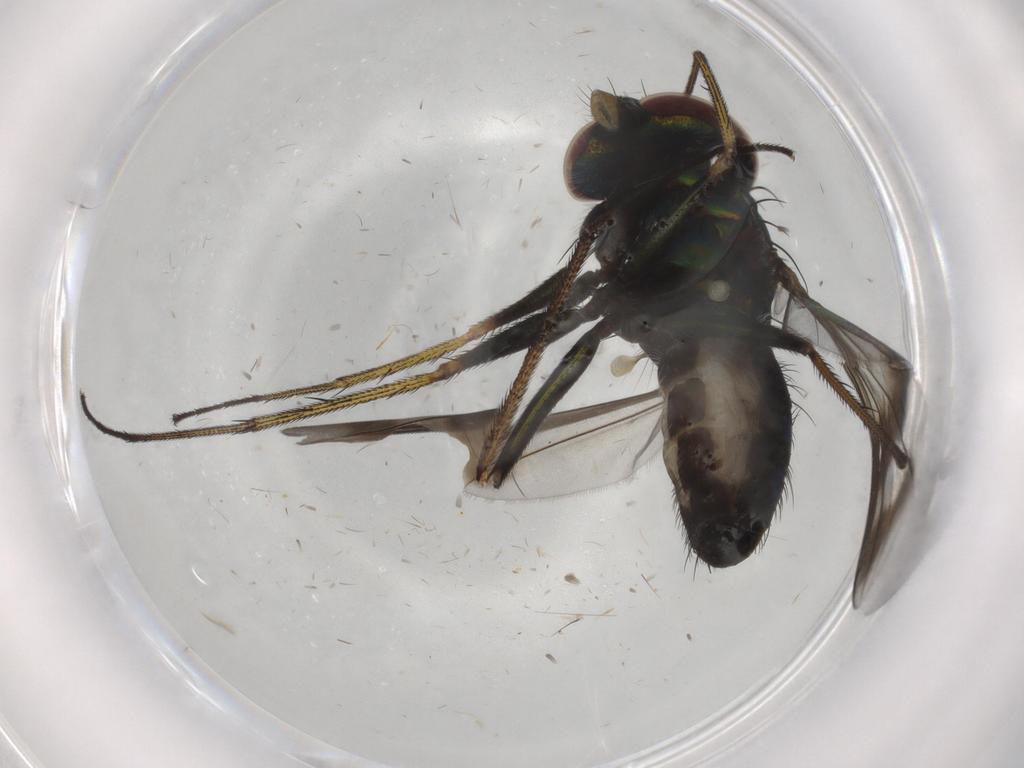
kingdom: Animalia
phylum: Arthropoda
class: Insecta
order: Diptera
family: Dolichopodidae
